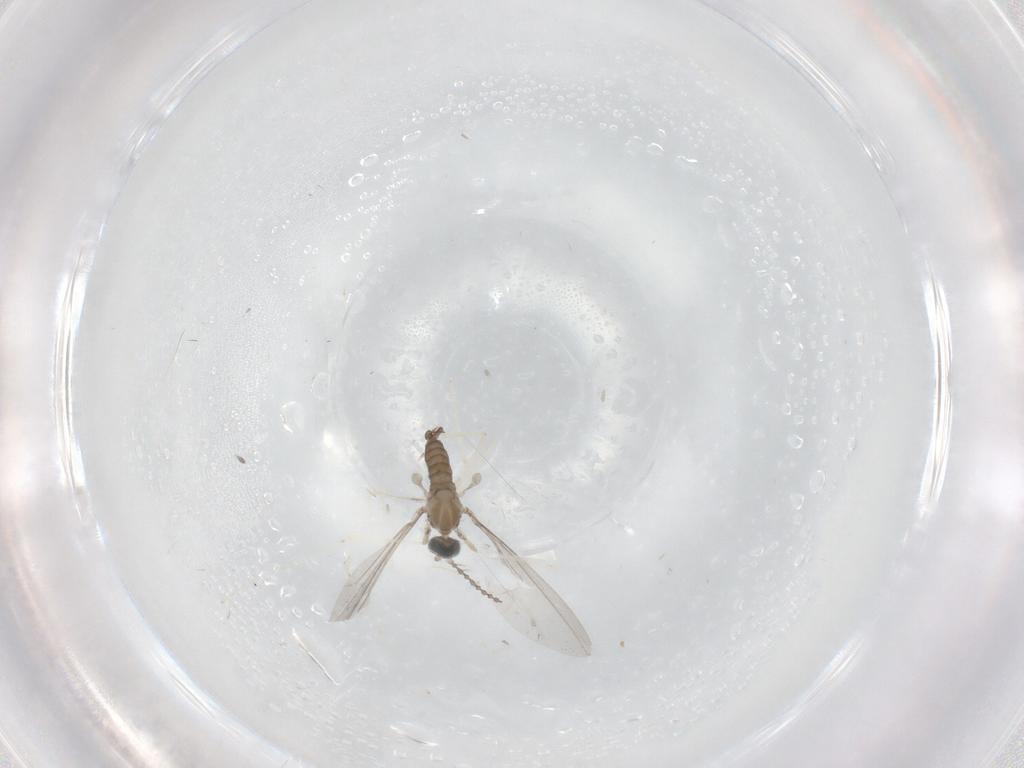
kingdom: Animalia
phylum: Arthropoda
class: Insecta
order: Diptera
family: Cecidomyiidae
